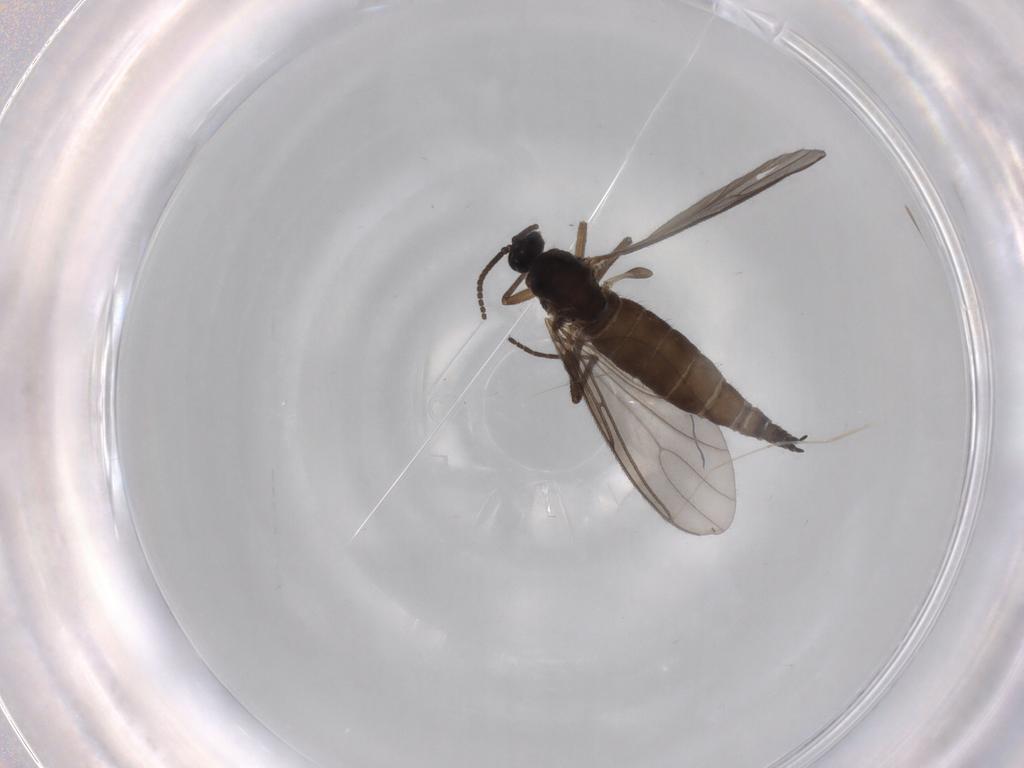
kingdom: Animalia
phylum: Arthropoda
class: Insecta
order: Diptera
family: Sciaridae
